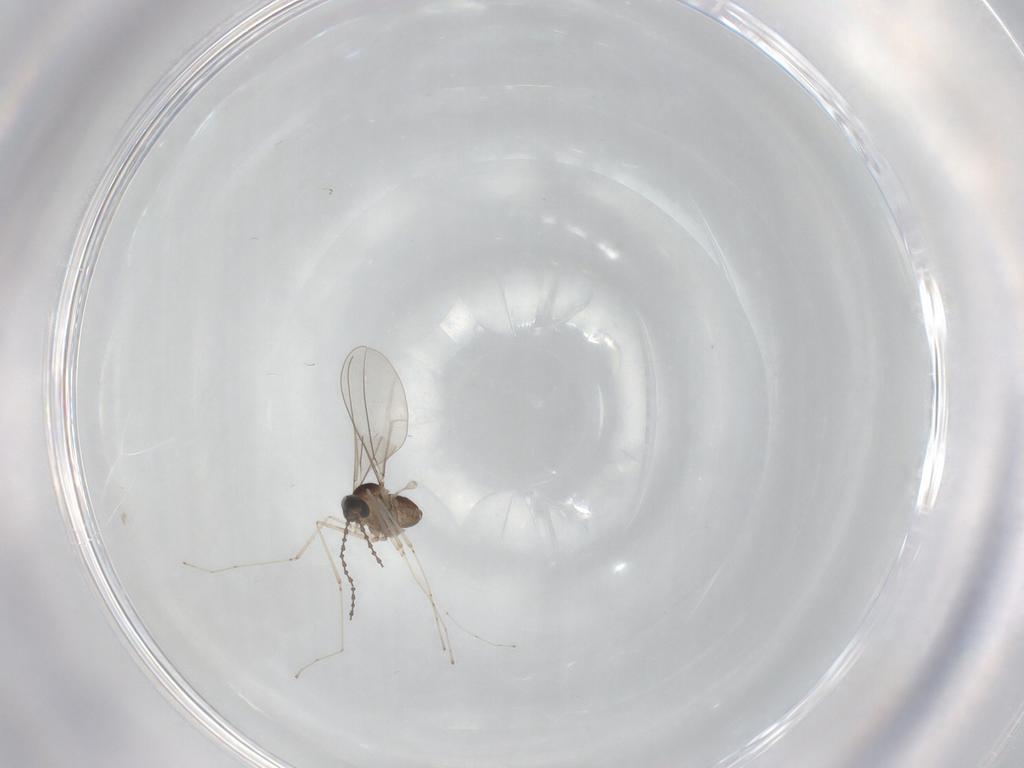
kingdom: Animalia
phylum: Arthropoda
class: Insecta
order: Diptera
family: Cecidomyiidae
